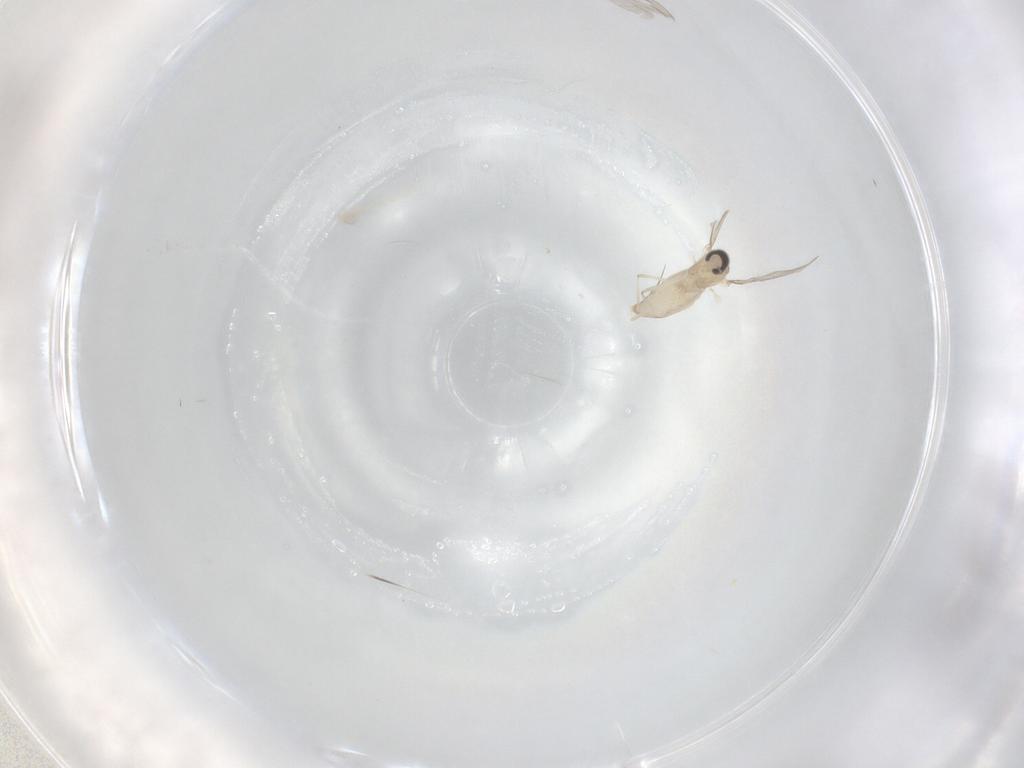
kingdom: Animalia
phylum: Arthropoda
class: Insecta
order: Diptera
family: Cecidomyiidae
